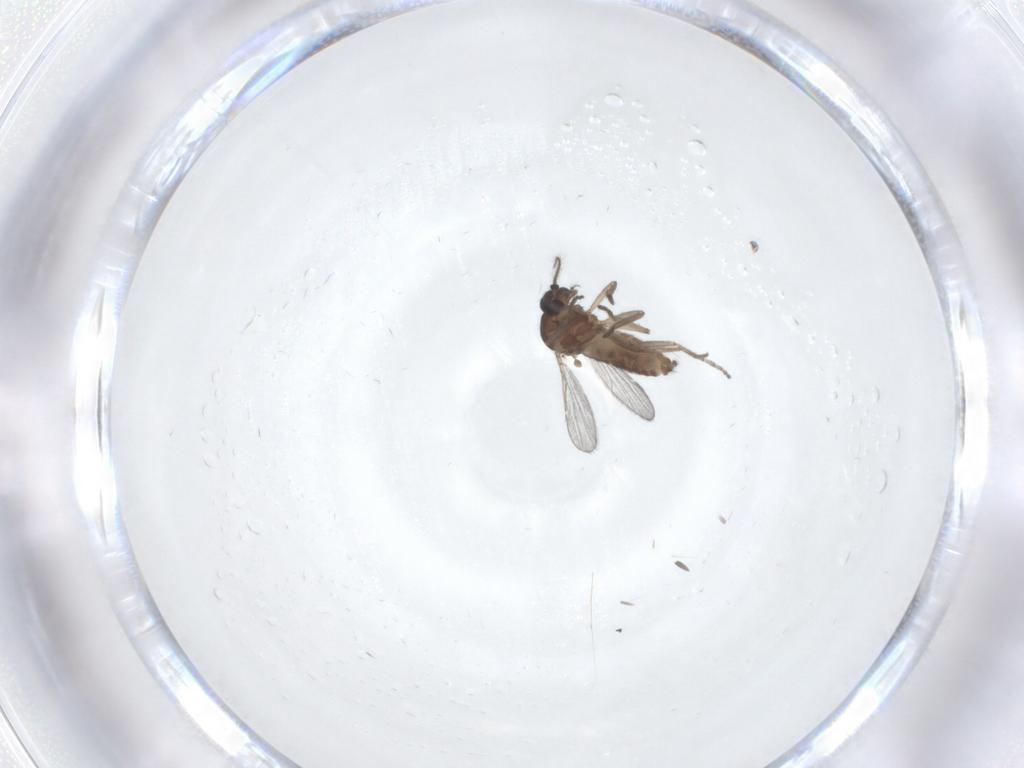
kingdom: Animalia
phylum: Arthropoda
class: Insecta
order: Diptera
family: Ceratopogonidae
